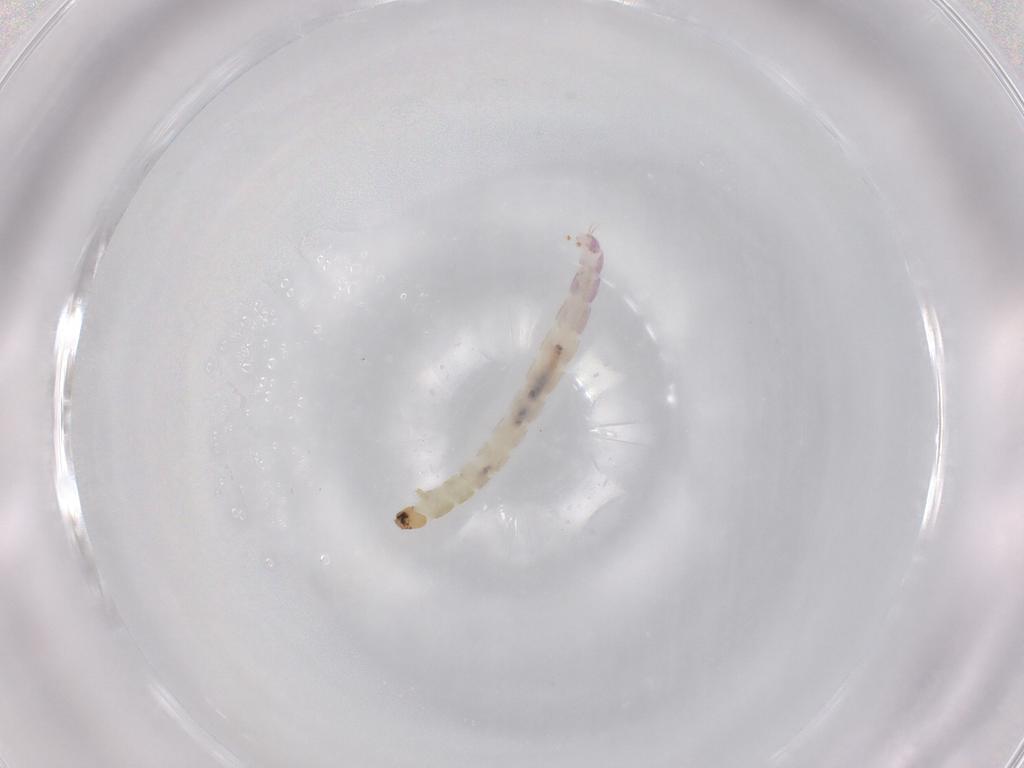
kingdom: Animalia
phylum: Arthropoda
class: Insecta
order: Diptera
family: Chironomidae
